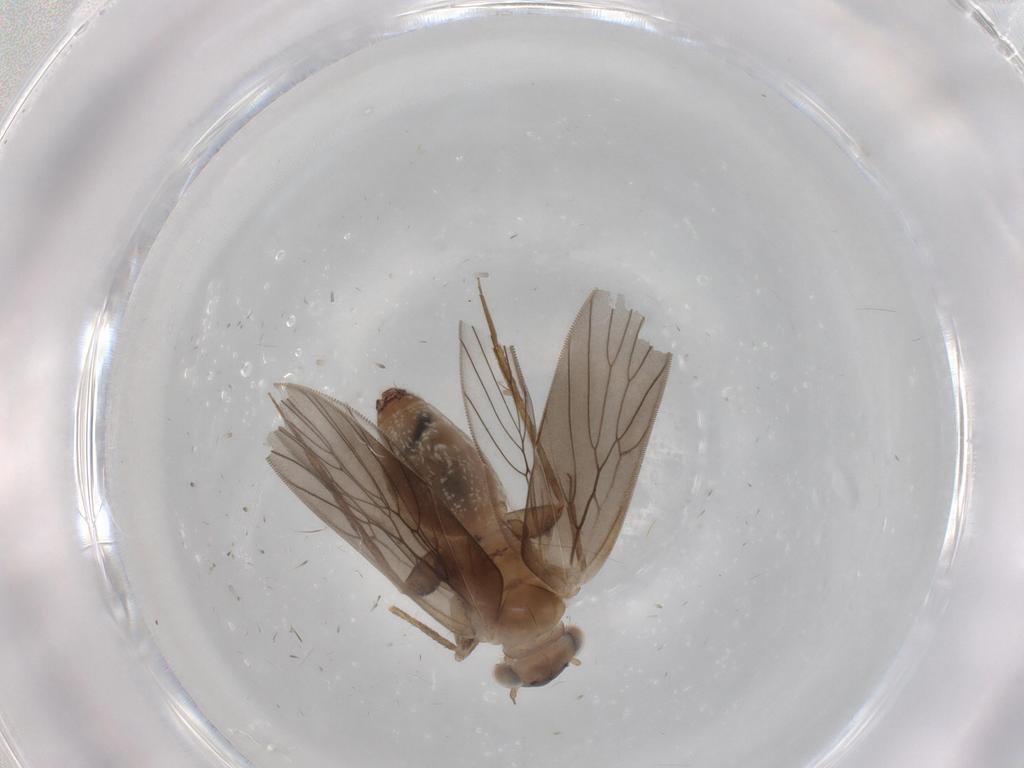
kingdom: Animalia
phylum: Arthropoda
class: Insecta
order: Psocodea
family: Lepidopsocidae
